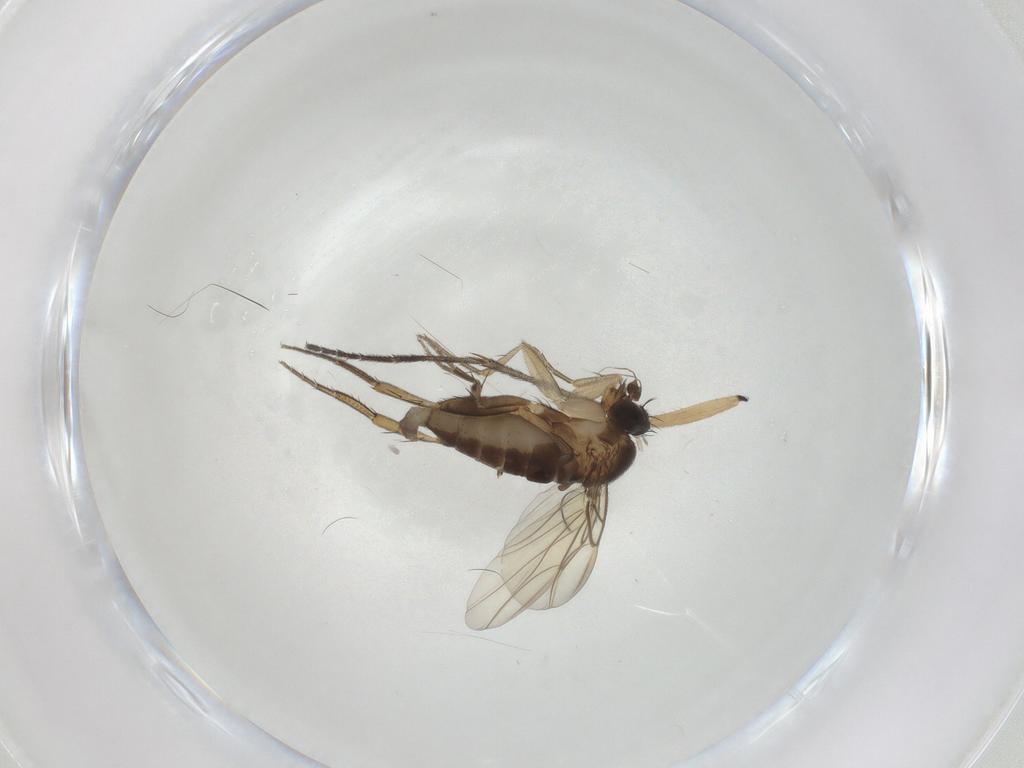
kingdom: Animalia
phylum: Arthropoda
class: Insecta
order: Diptera
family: Phoridae
